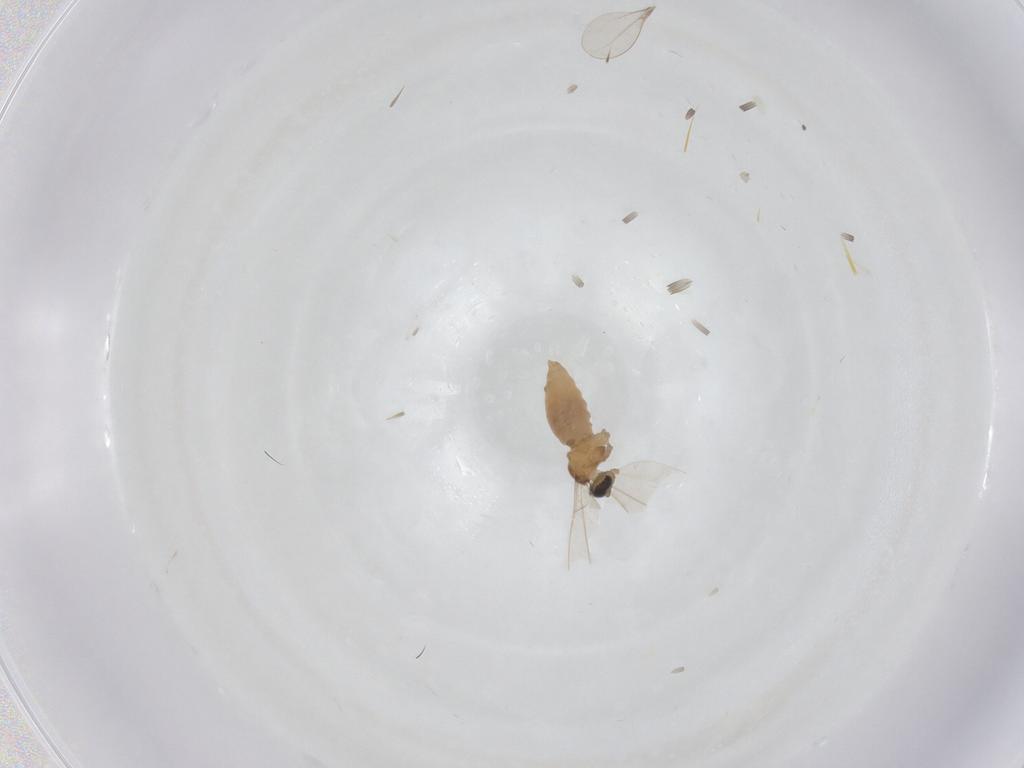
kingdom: Animalia
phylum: Arthropoda
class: Insecta
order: Diptera
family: Cecidomyiidae
